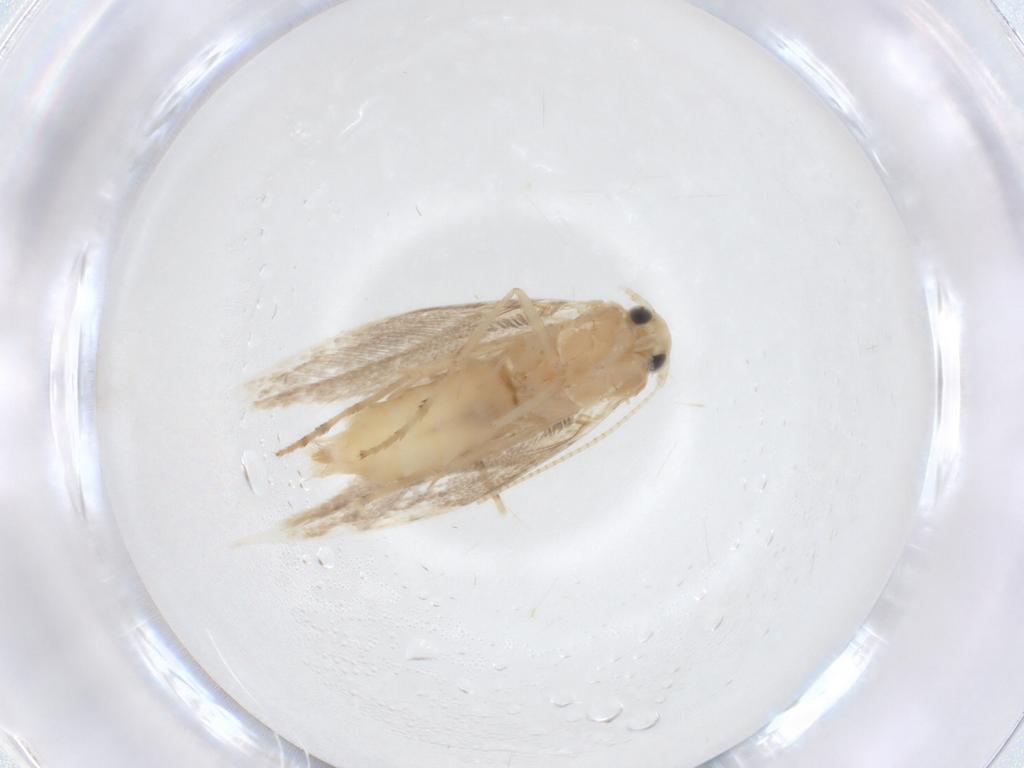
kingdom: Animalia
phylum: Arthropoda
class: Insecta
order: Lepidoptera
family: Gracillariidae
